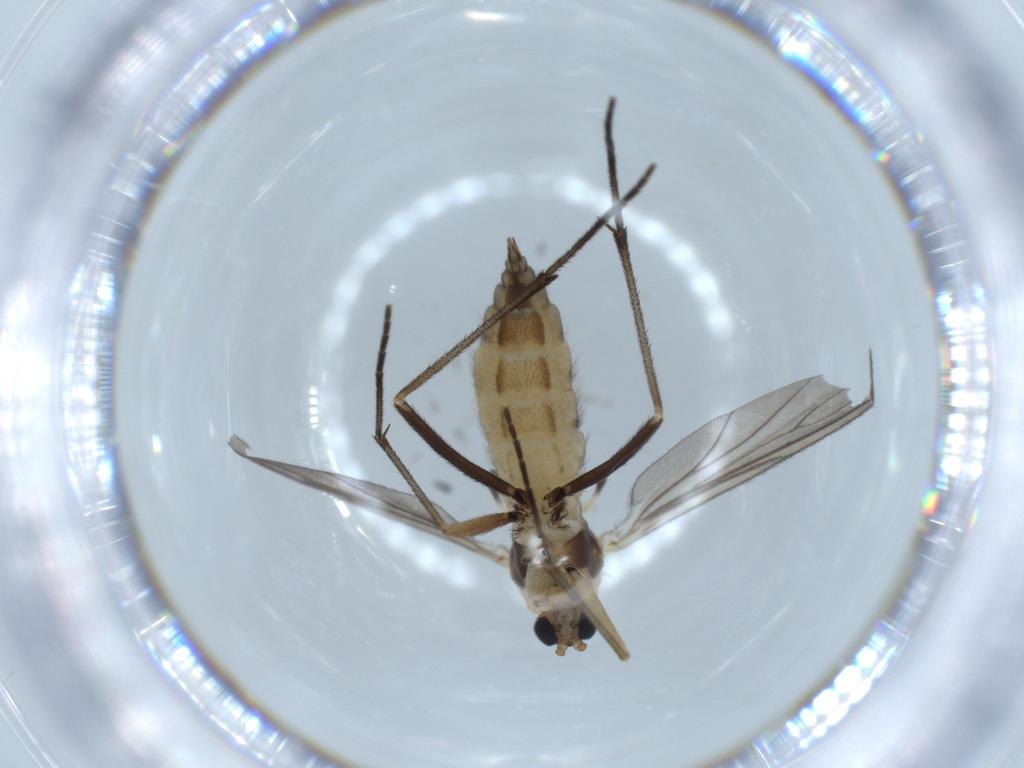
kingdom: Animalia
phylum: Arthropoda
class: Insecta
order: Diptera
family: Sciaridae
